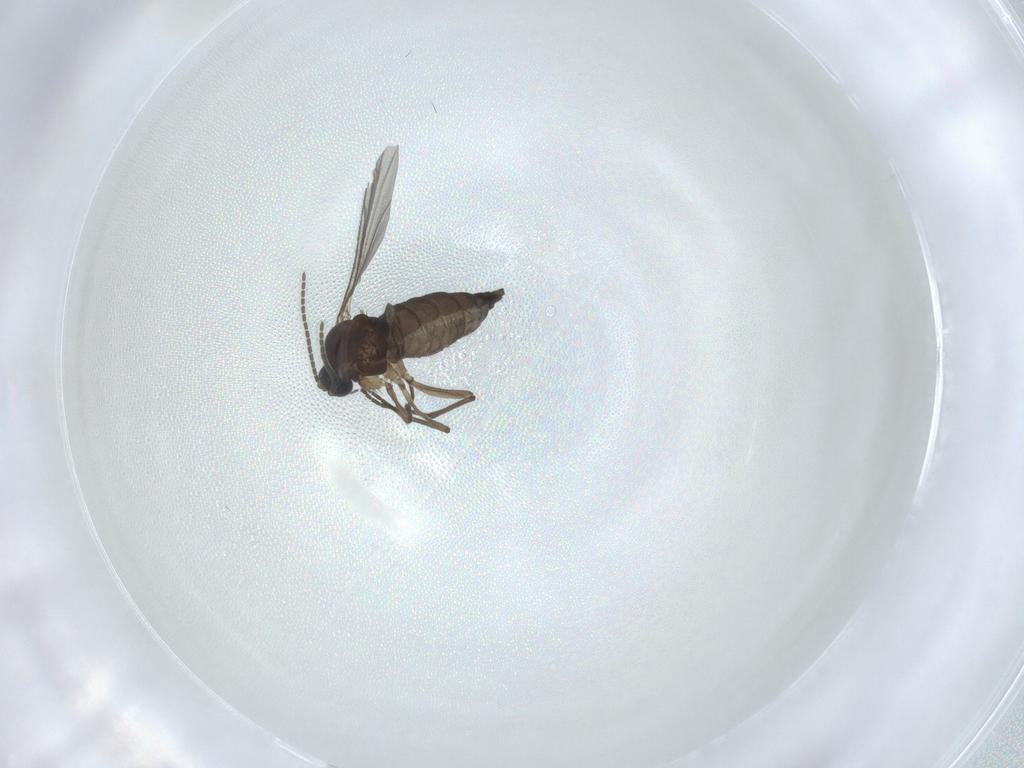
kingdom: Animalia
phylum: Arthropoda
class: Insecta
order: Diptera
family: Sciaridae
